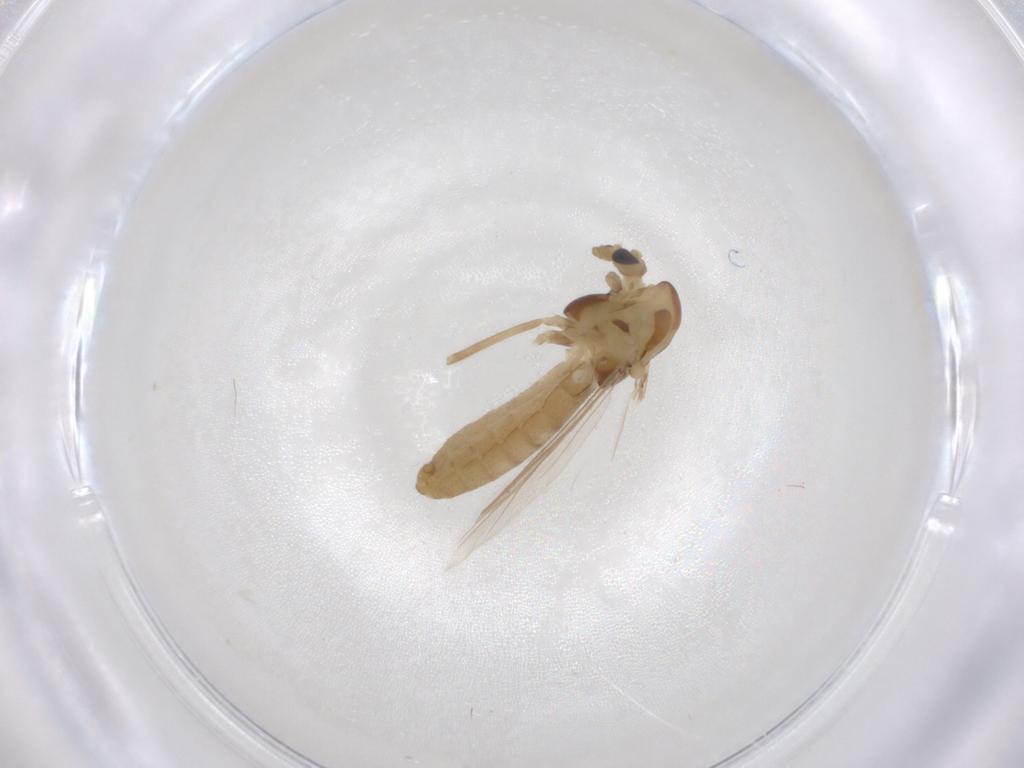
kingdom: Animalia
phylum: Arthropoda
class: Insecta
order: Diptera
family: Chironomidae
